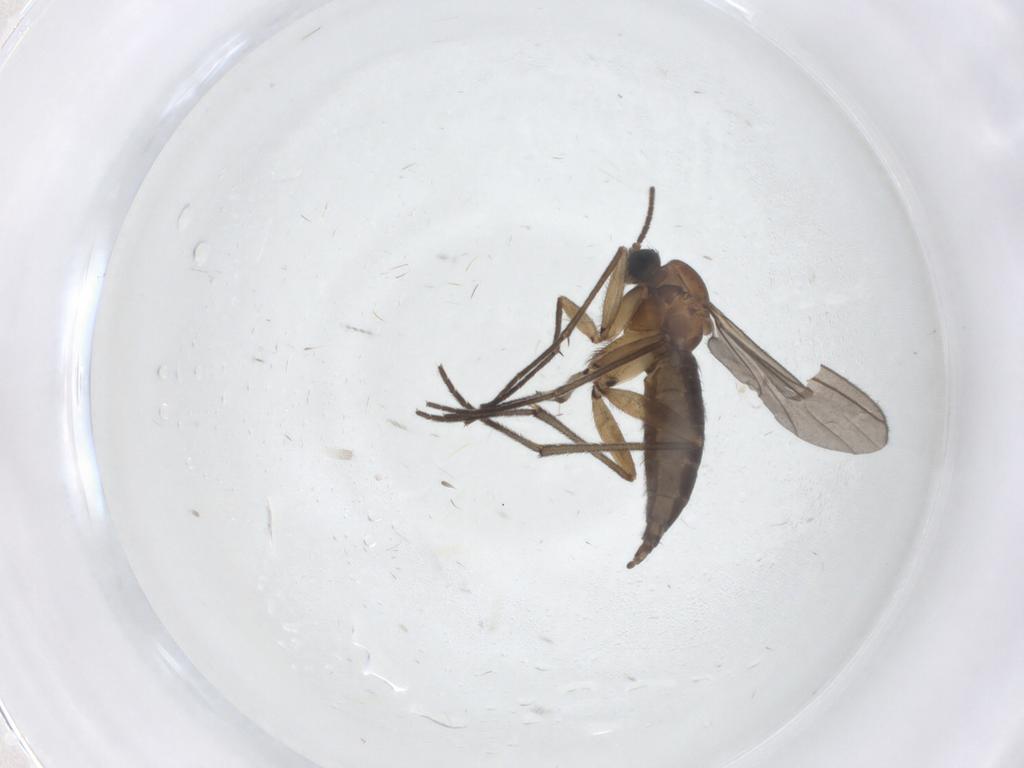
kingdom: Animalia
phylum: Arthropoda
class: Insecta
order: Diptera
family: Sciaridae
